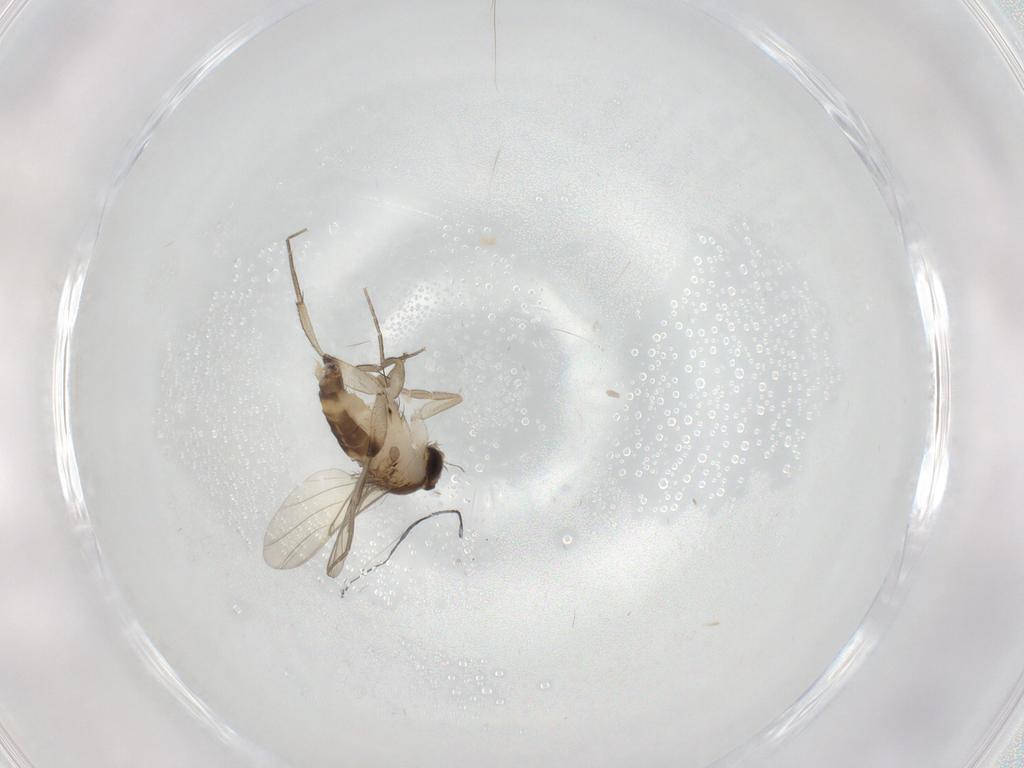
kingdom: Animalia
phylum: Arthropoda
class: Insecta
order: Diptera
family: Phoridae
